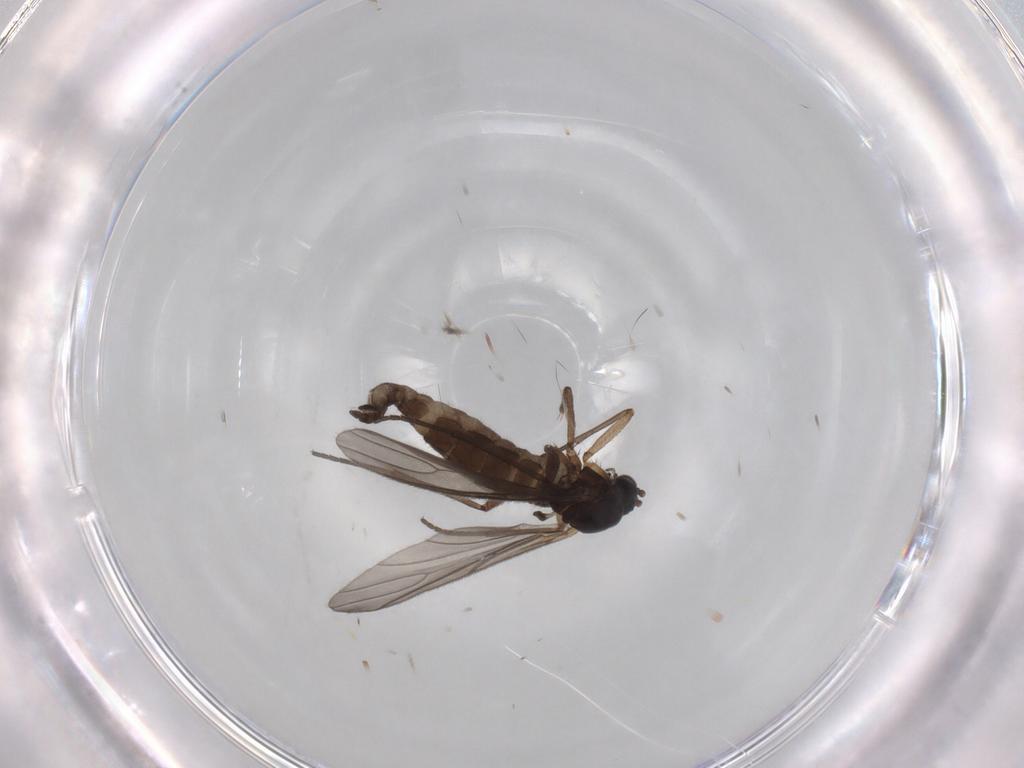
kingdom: Animalia
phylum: Arthropoda
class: Insecta
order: Diptera
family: Sciaridae
